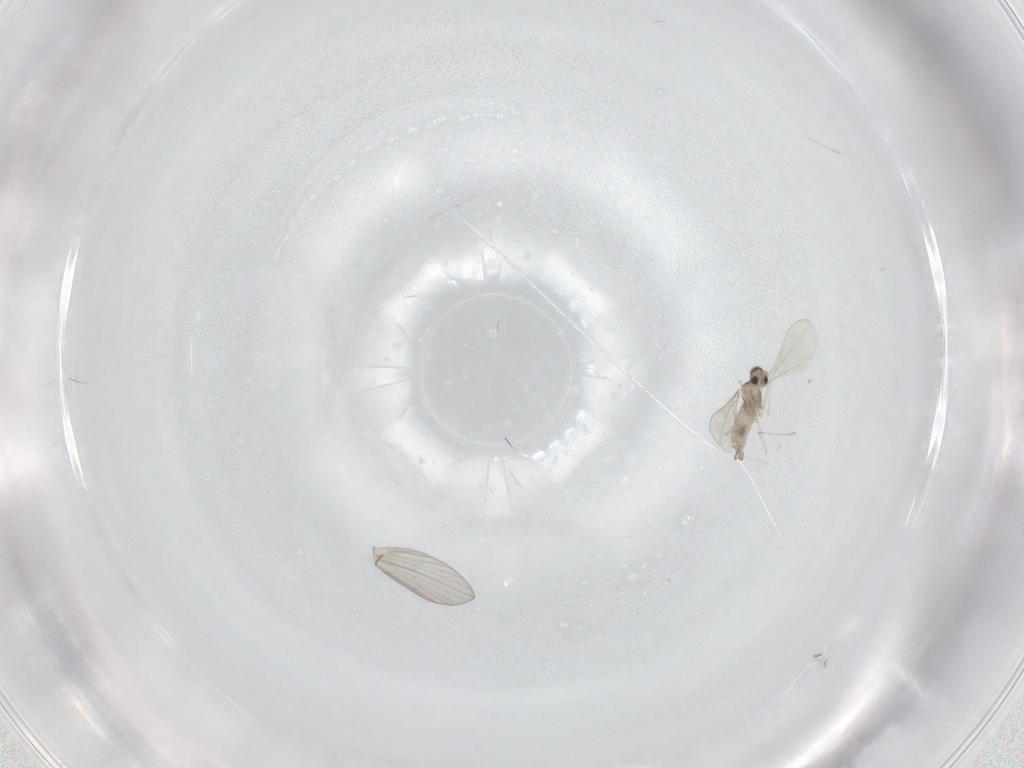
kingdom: Animalia
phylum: Arthropoda
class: Insecta
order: Diptera
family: Cecidomyiidae
